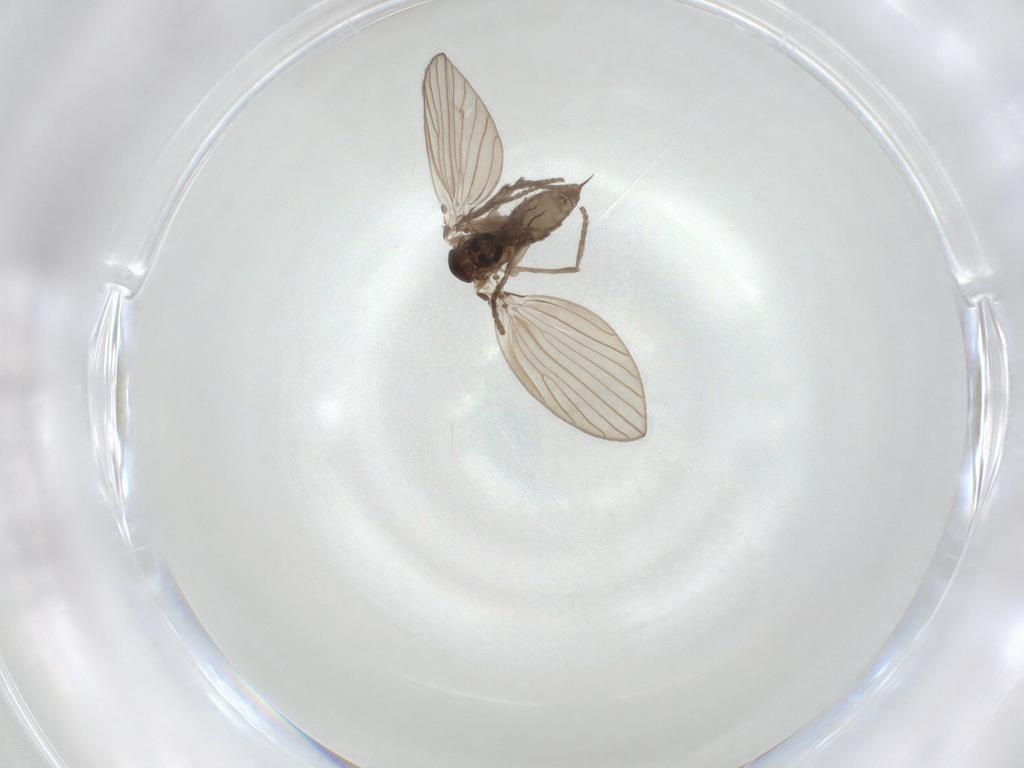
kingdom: Animalia
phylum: Arthropoda
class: Insecta
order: Diptera
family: Psychodidae
